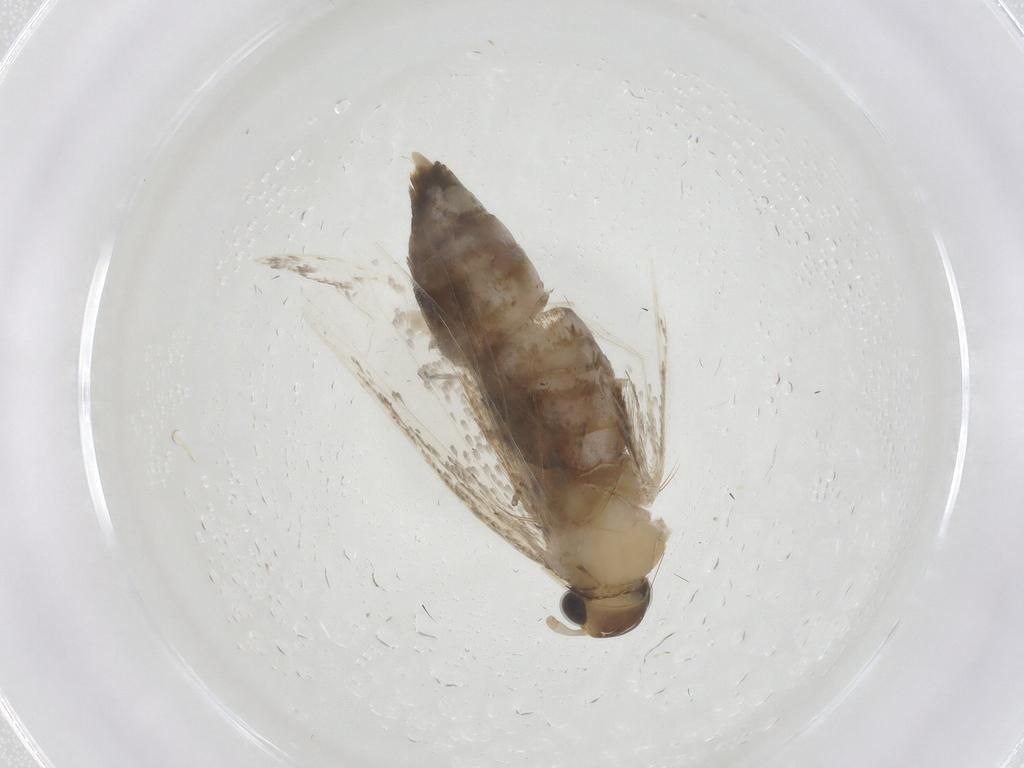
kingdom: Animalia
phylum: Arthropoda
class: Insecta
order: Lepidoptera
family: Lecithoceridae
